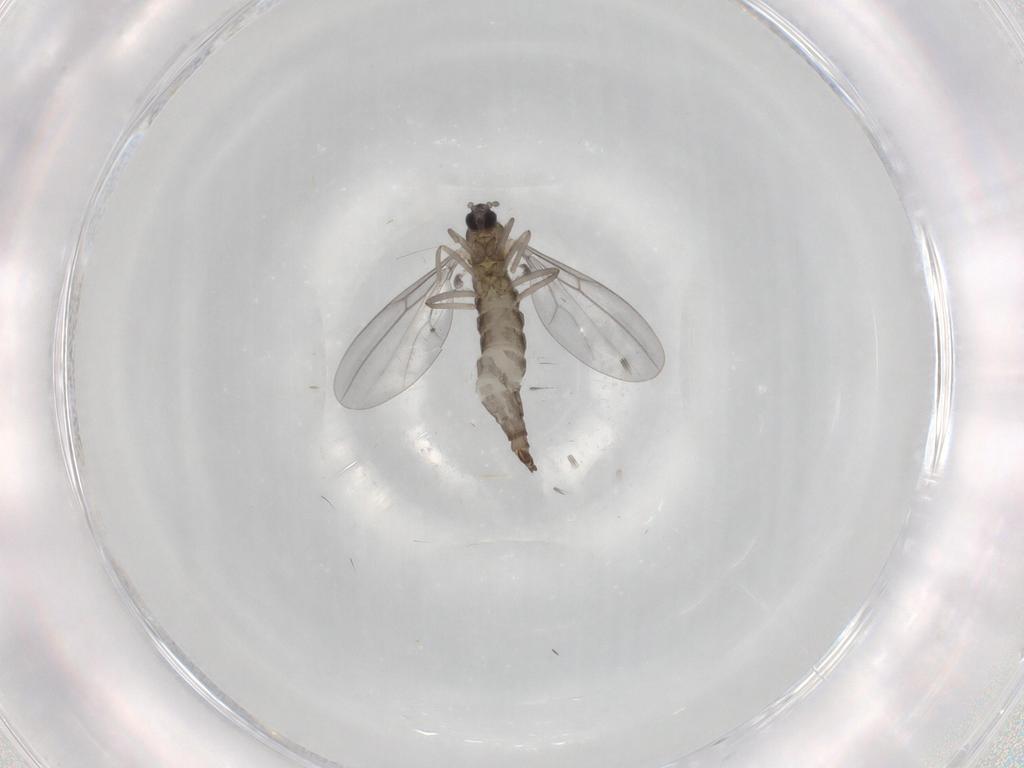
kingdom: Animalia
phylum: Arthropoda
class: Insecta
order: Diptera
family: Cecidomyiidae
